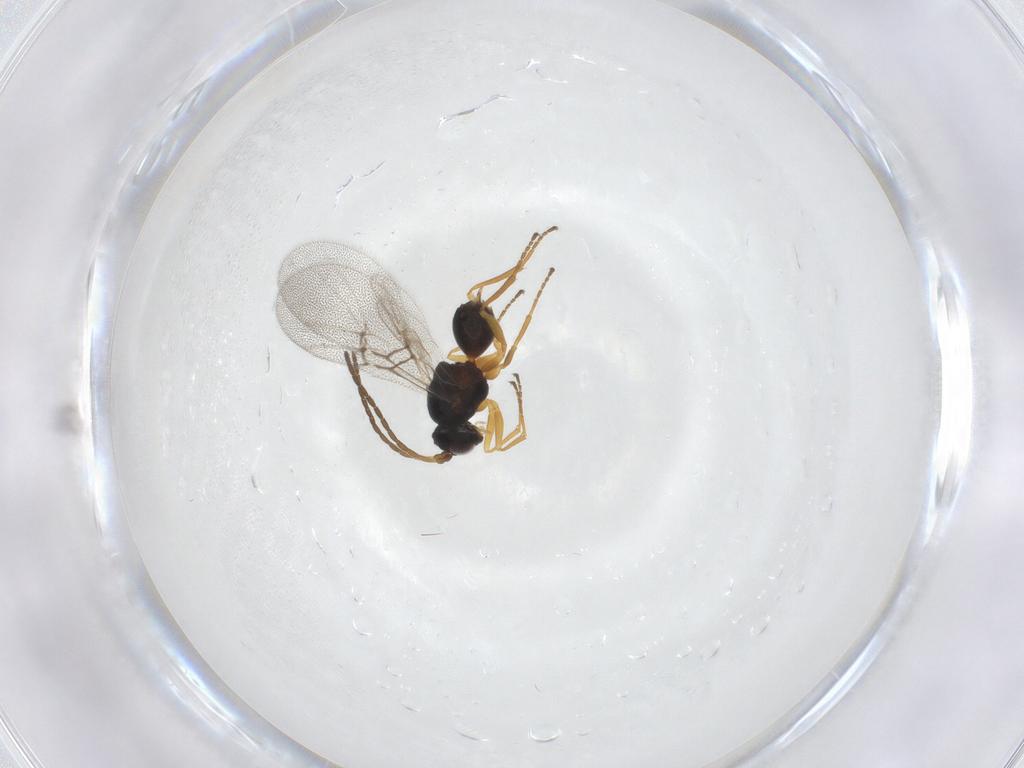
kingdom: Animalia
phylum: Arthropoda
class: Insecta
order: Hymenoptera
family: Cynipidae
